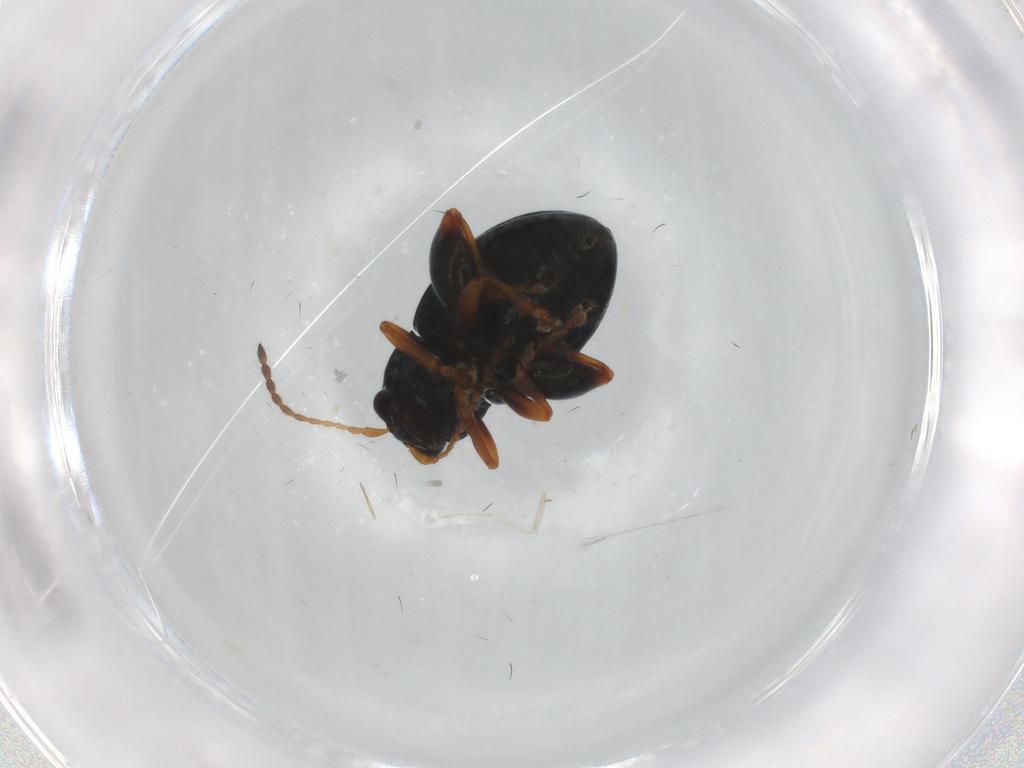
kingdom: Animalia
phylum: Arthropoda
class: Insecta
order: Coleoptera
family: Chrysomelidae
